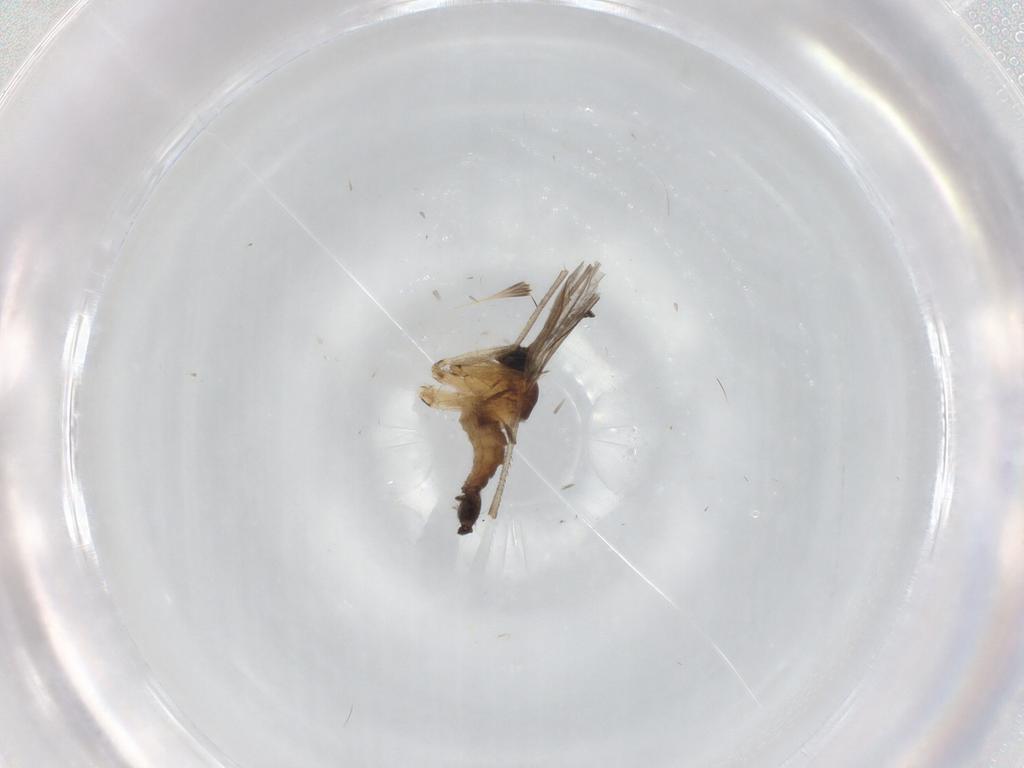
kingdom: Animalia
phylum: Arthropoda
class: Insecta
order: Diptera
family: Sciaridae
